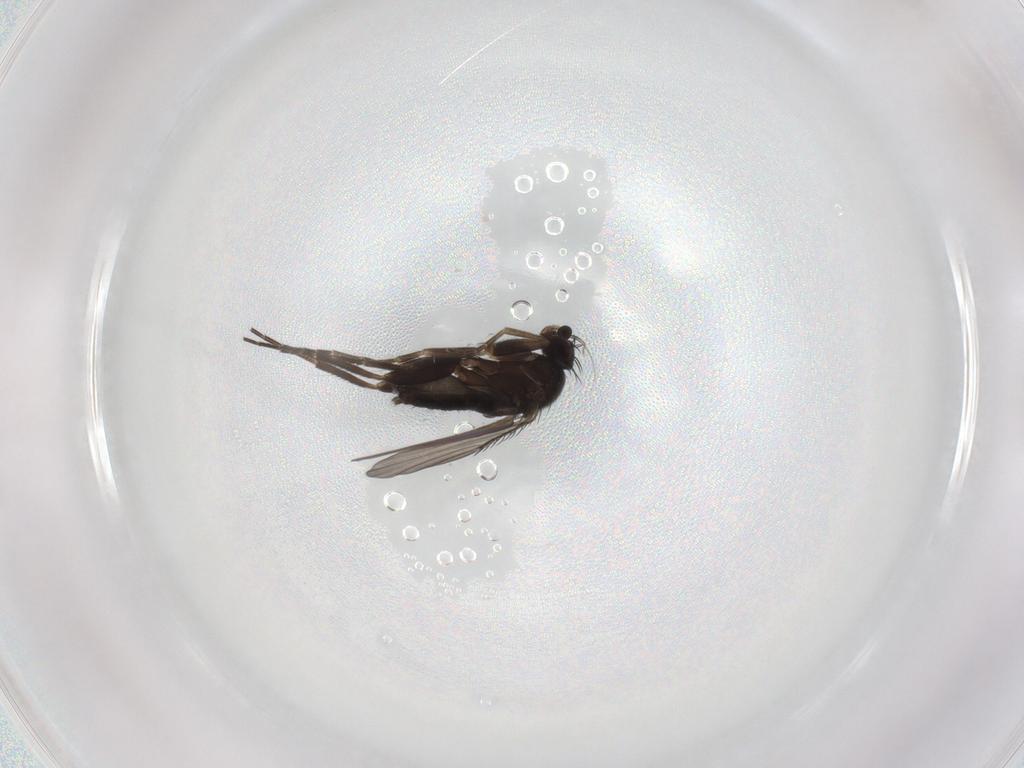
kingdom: Animalia
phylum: Arthropoda
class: Insecta
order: Diptera
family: Phoridae
